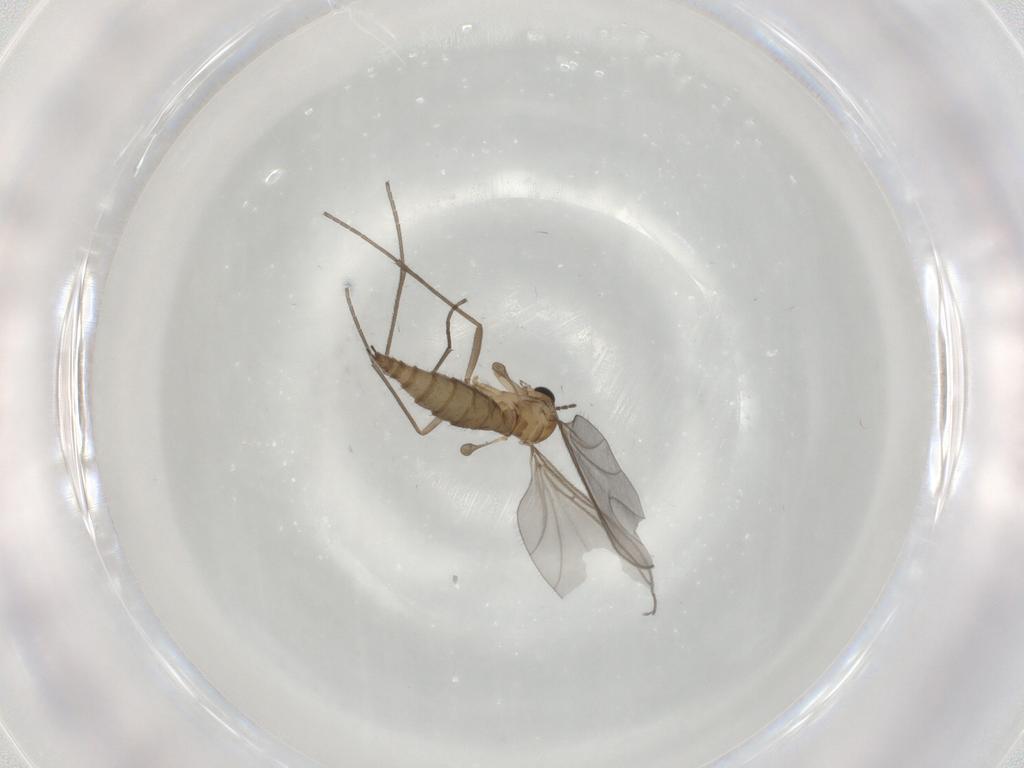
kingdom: Animalia
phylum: Arthropoda
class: Insecta
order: Diptera
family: Sciaridae
